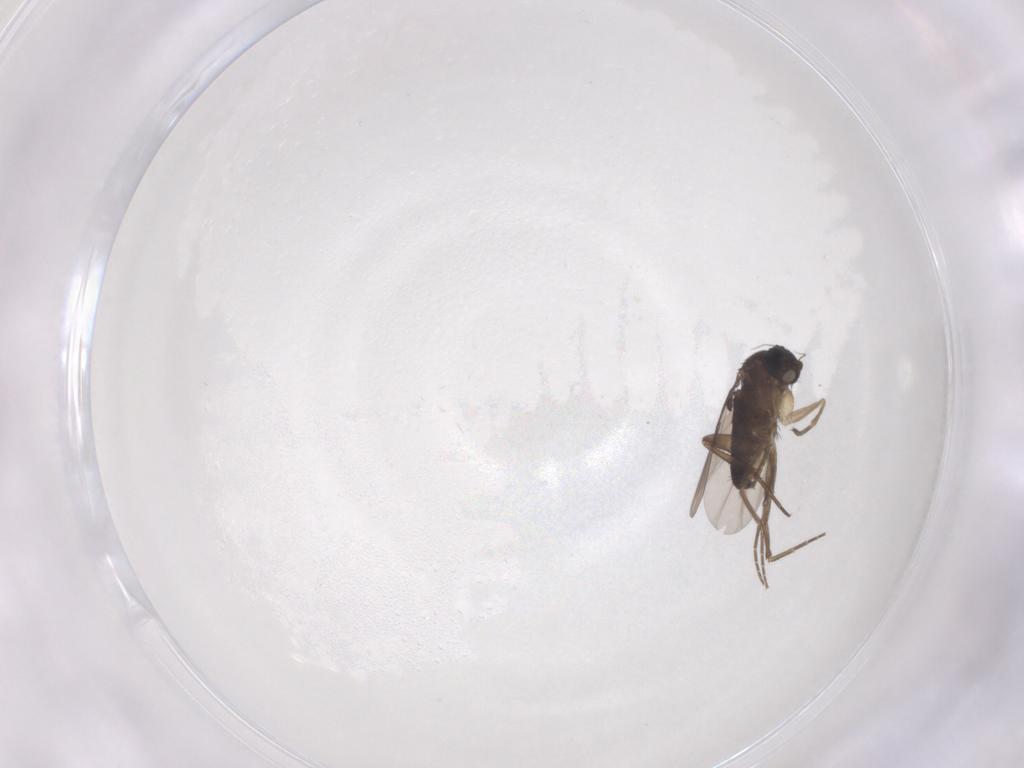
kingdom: Animalia
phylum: Arthropoda
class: Insecta
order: Diptera
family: Phoridae
